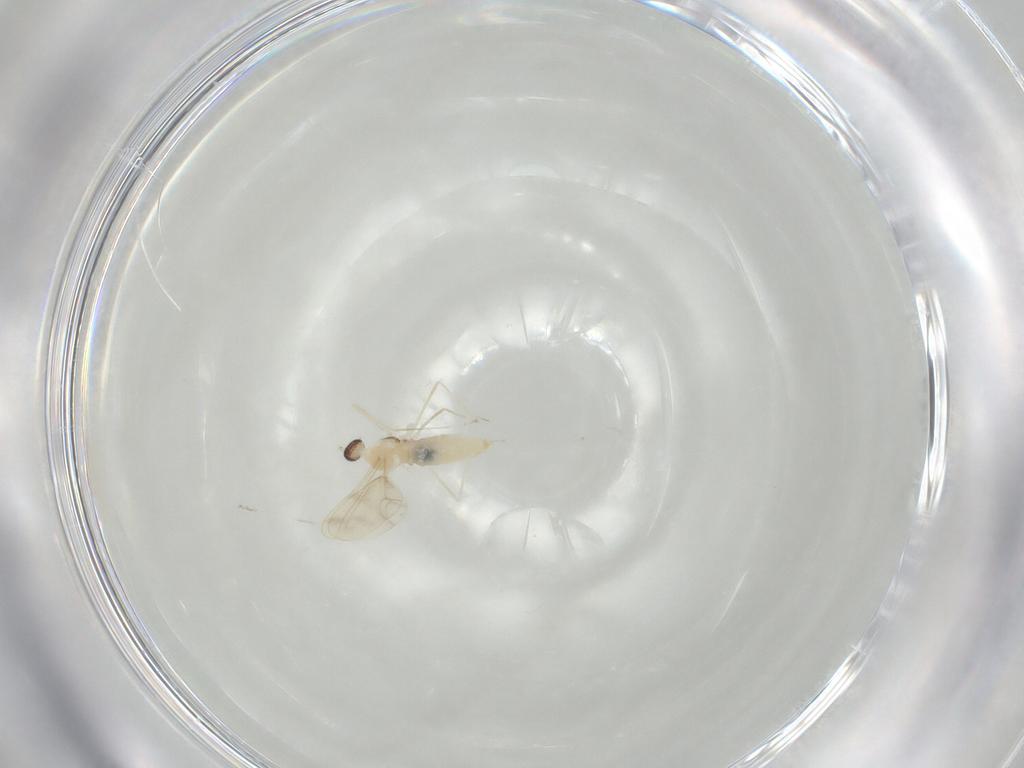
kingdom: Animalia
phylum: Arthropoda
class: Insecta
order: Diptera
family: Cecidomyiidae
